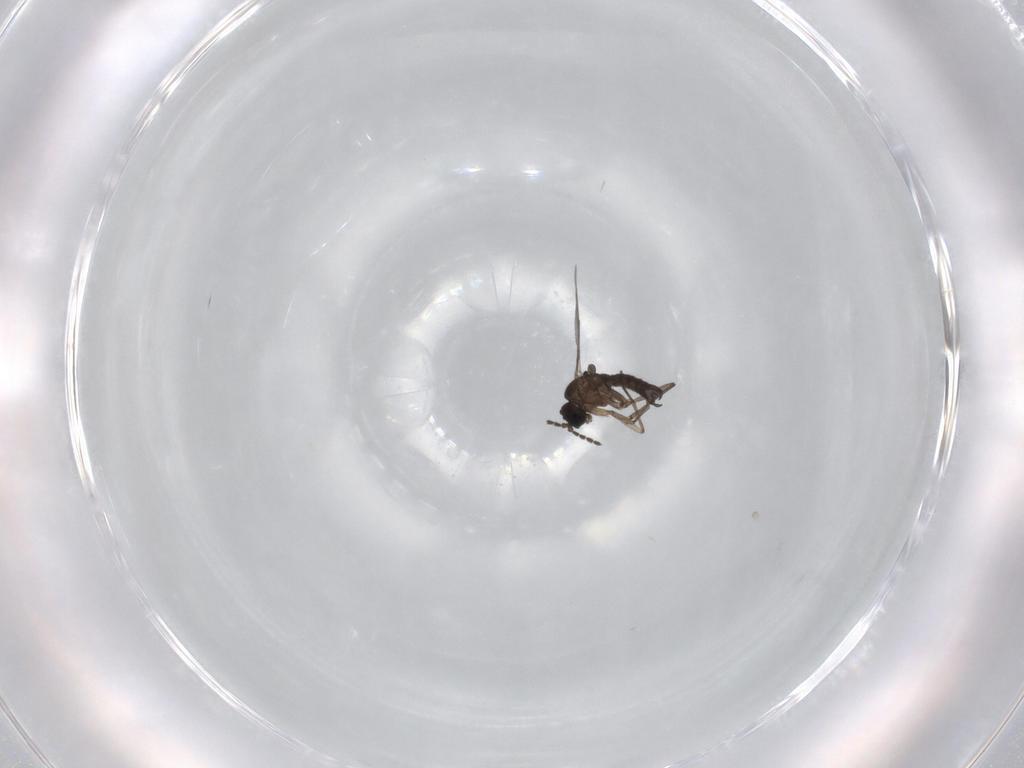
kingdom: Animalia
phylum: Arthropoda
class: Insecta
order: Diptera
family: Sciaridae
